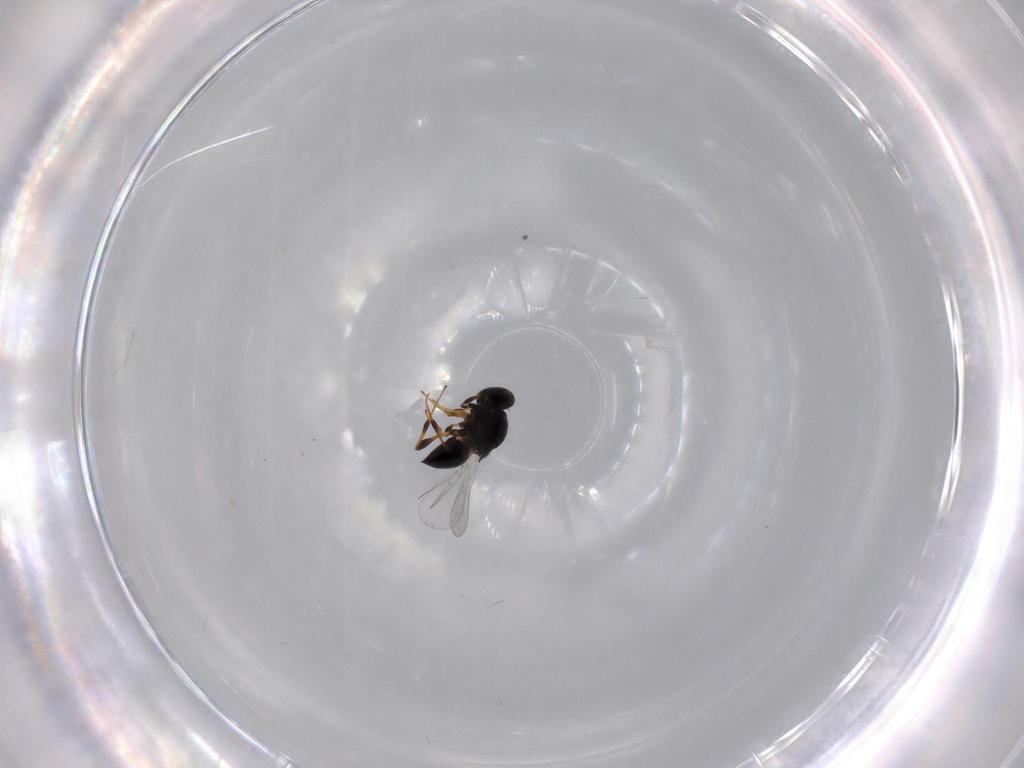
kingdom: Animalia
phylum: Arthropoda
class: Insecta
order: Hymenoptera
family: Platygastridae
